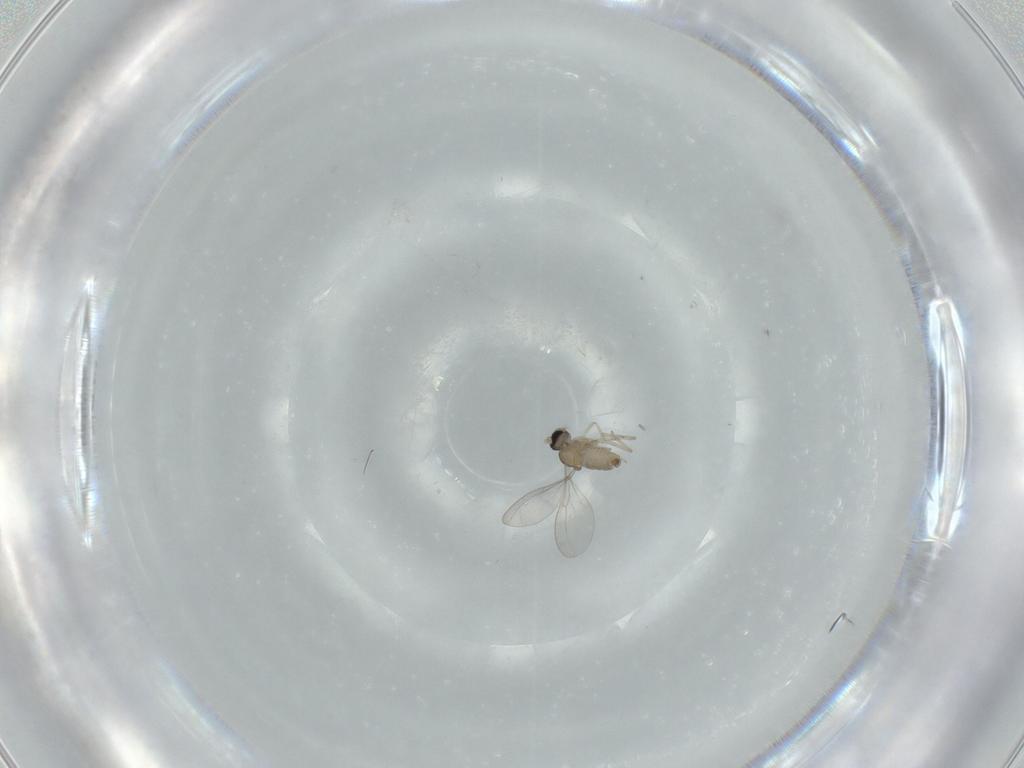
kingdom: Animalia
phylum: Arthropoda
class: Insecta
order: Diptera
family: Cecidomyiidae
